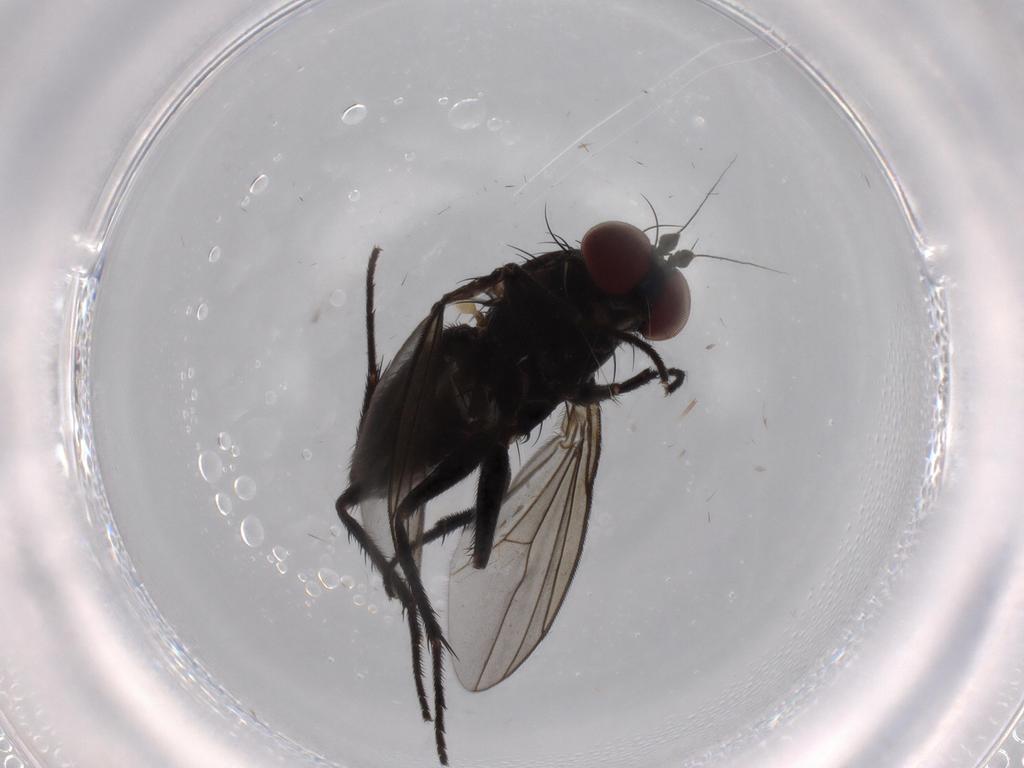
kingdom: Animalia
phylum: Arthropoda
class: Insecta
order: Diptera
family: Dolichopodidae
